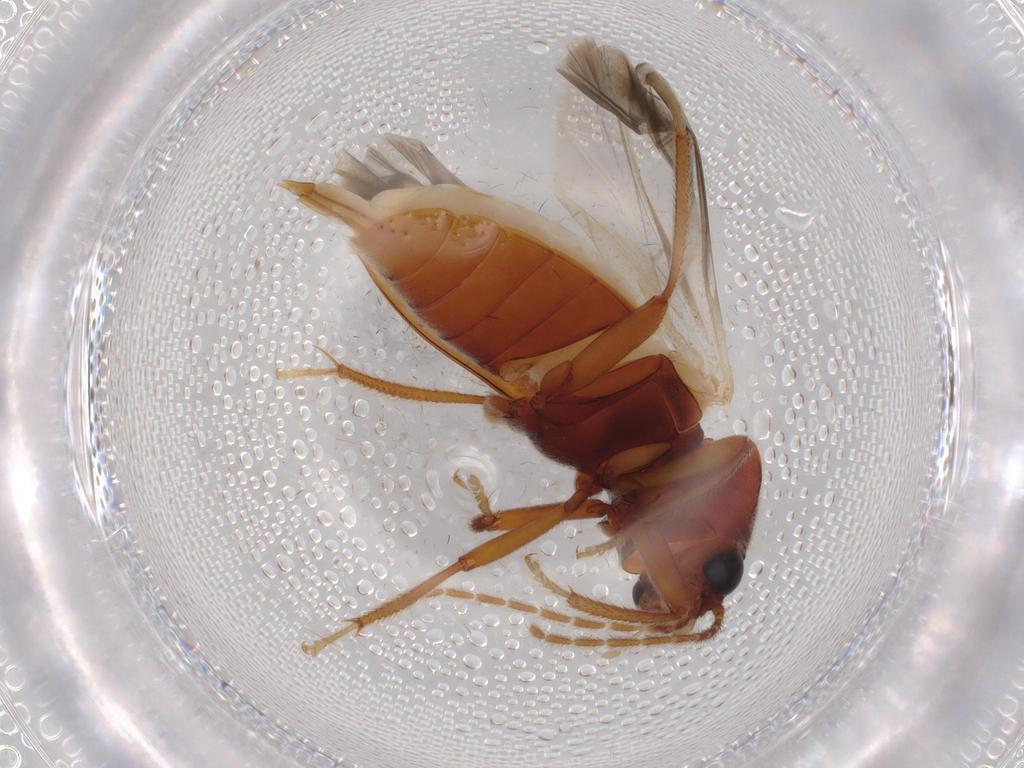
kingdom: Animalia
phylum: Arthropoda
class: Insecta
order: Coleoptera
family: Ptilodactylidae
